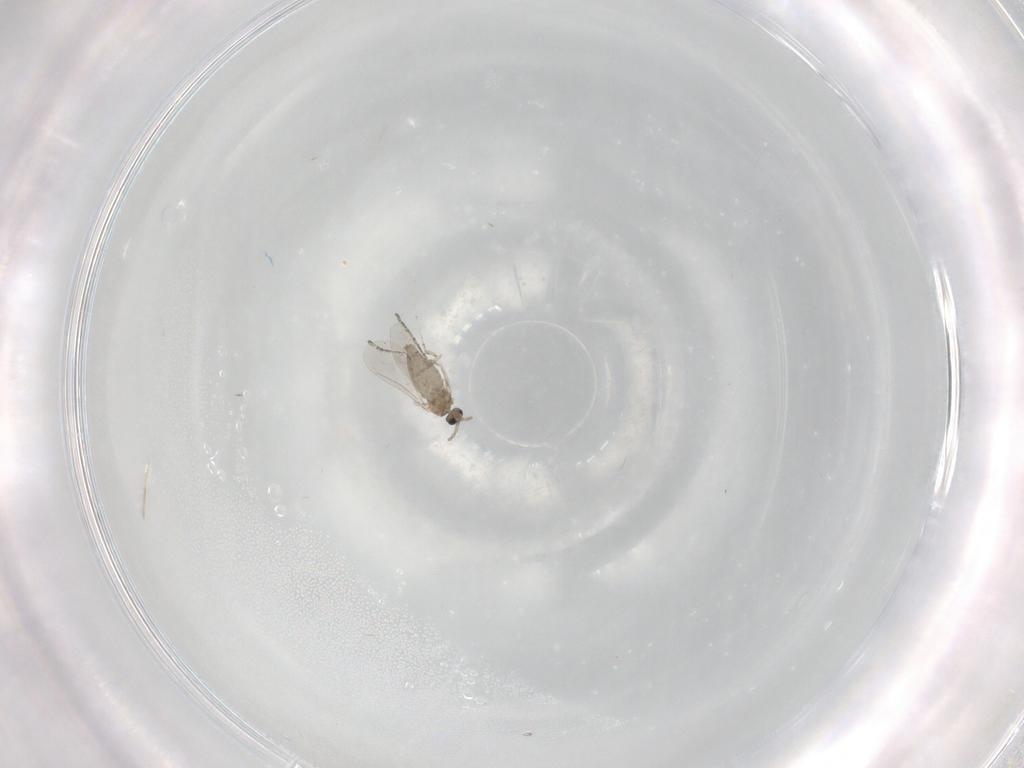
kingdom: Animalia
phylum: Arthropoda
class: Insecta
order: Diptera
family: Cecidomyiidae
